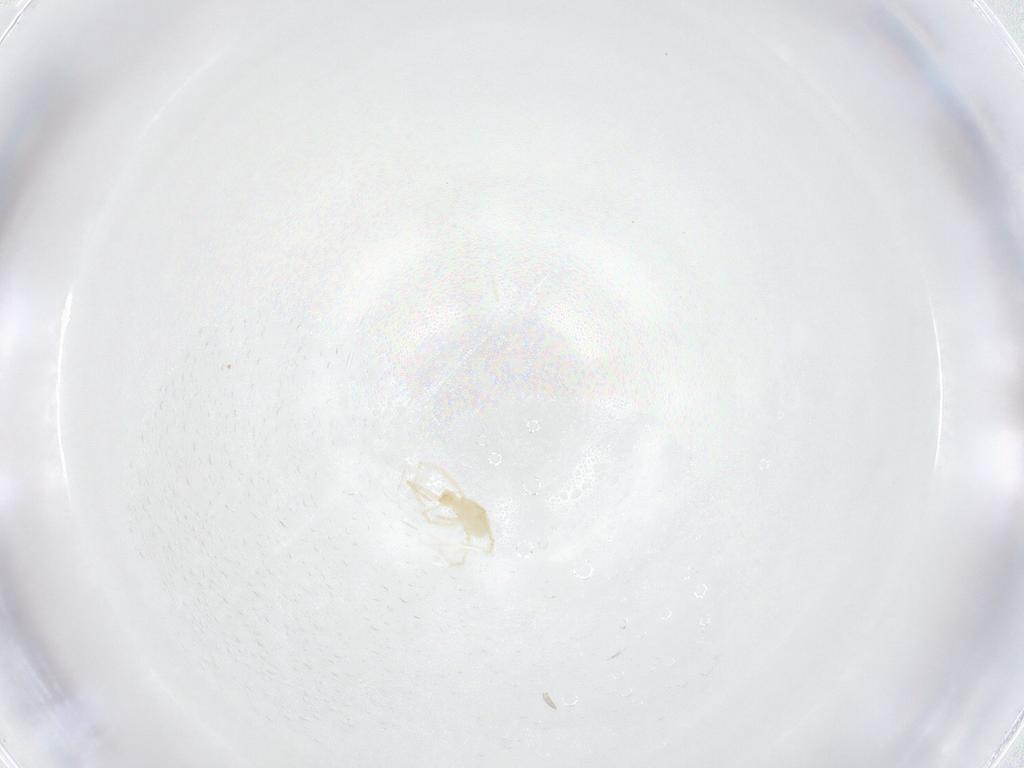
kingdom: Animalia
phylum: Arthropoda
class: Arachnida
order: Trombidiformes
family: Erythraeidae
